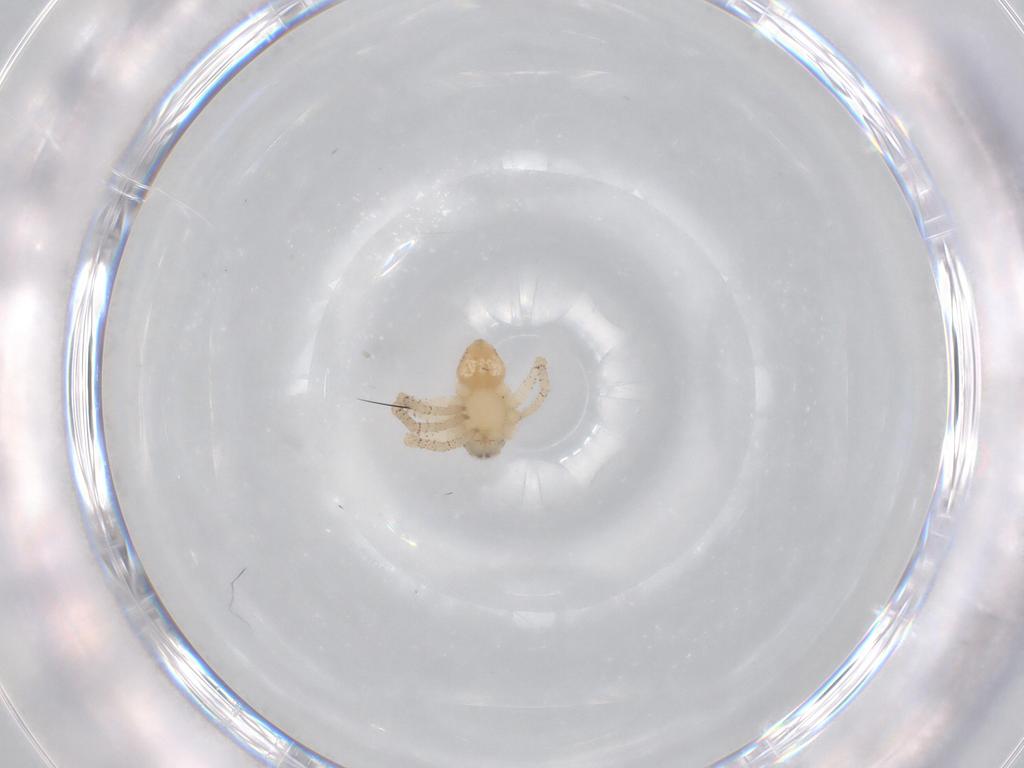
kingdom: Animalia
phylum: Arthropoda
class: Arachnida
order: Araneae
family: Philodromidae
